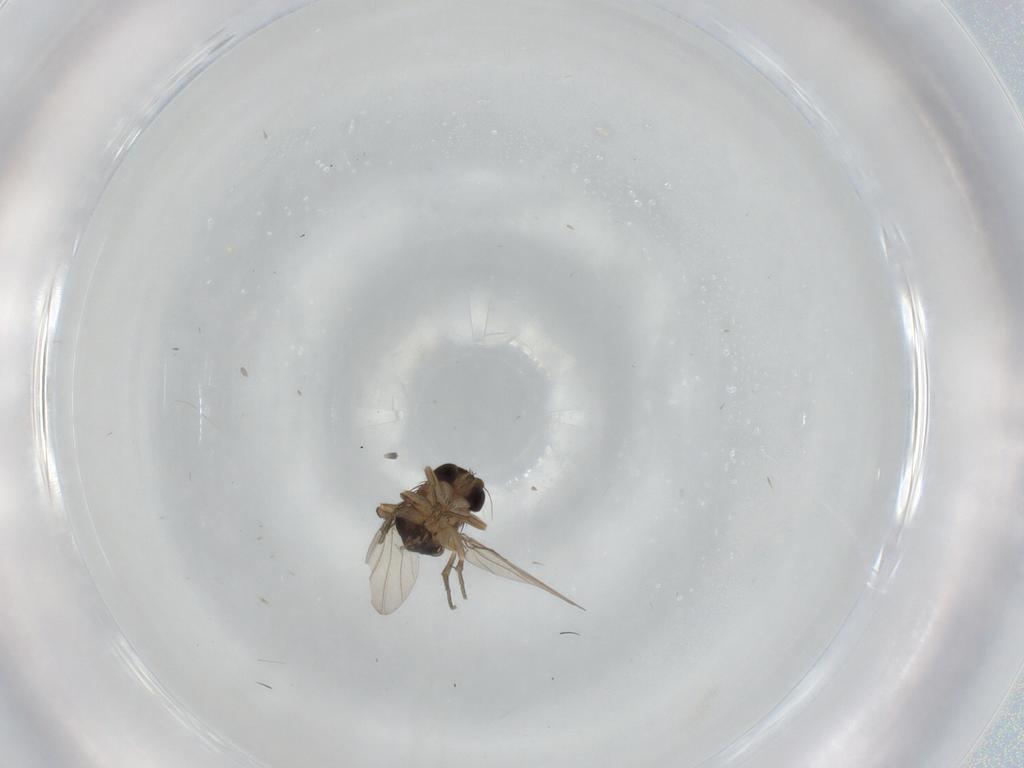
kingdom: Animalia
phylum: Arthropoda
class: Insecta
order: Diptera
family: Phoridae
